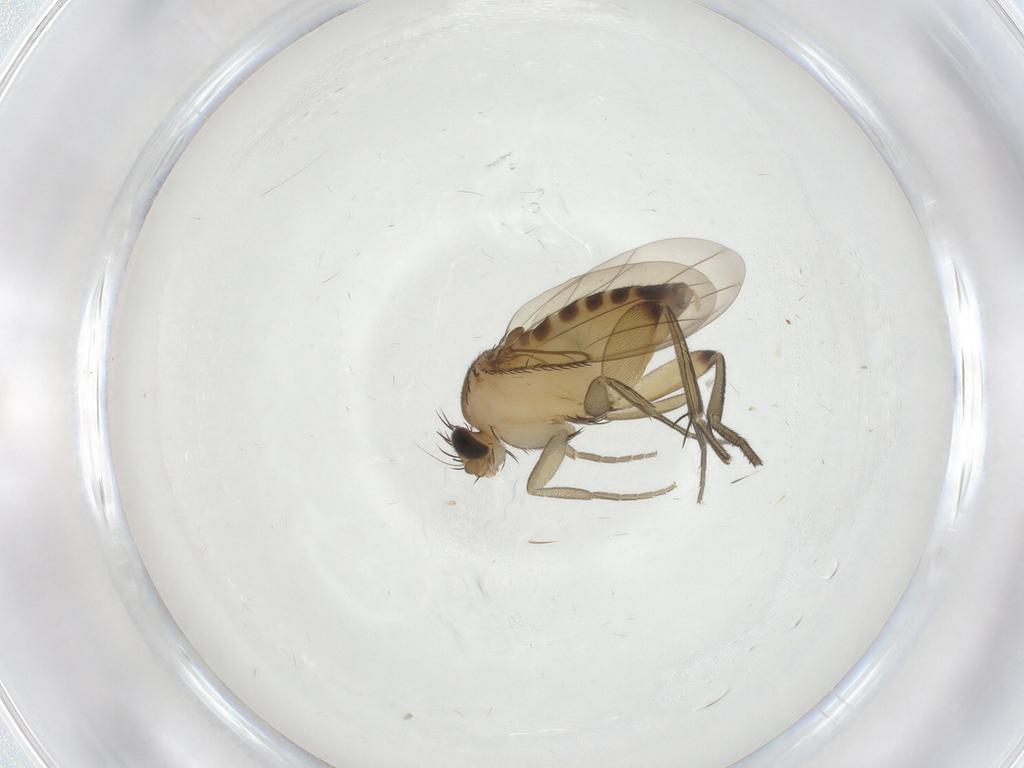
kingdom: Animalia
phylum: Arthropoda
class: Insecta
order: Diptera
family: Phoridae
